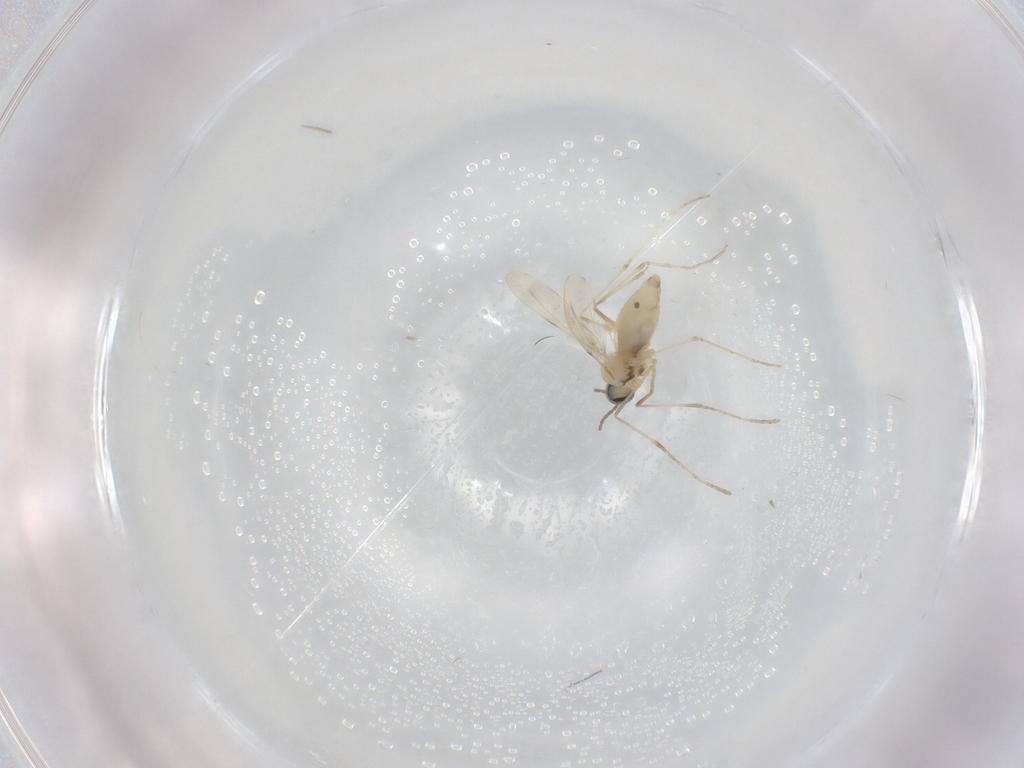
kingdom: Animalia
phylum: Arthropoda
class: Insecta
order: Diptera
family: Cecidomyiidae
